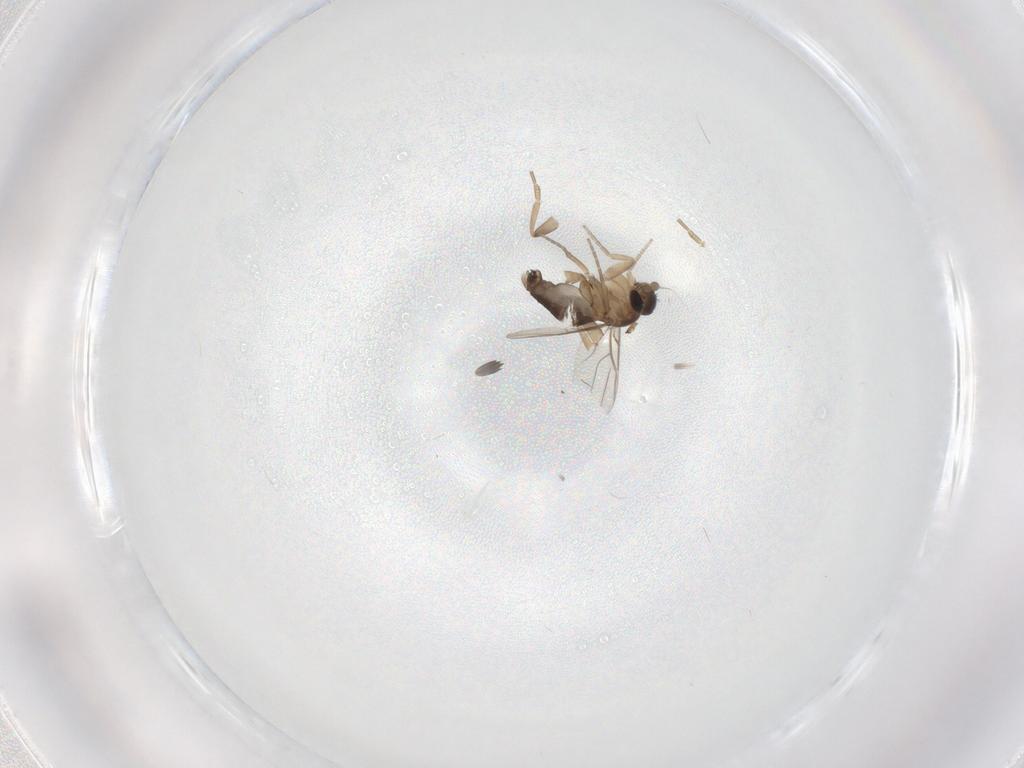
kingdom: Animalia
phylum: Arthropoda
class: Insecta
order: Diptera
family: Phoridae
